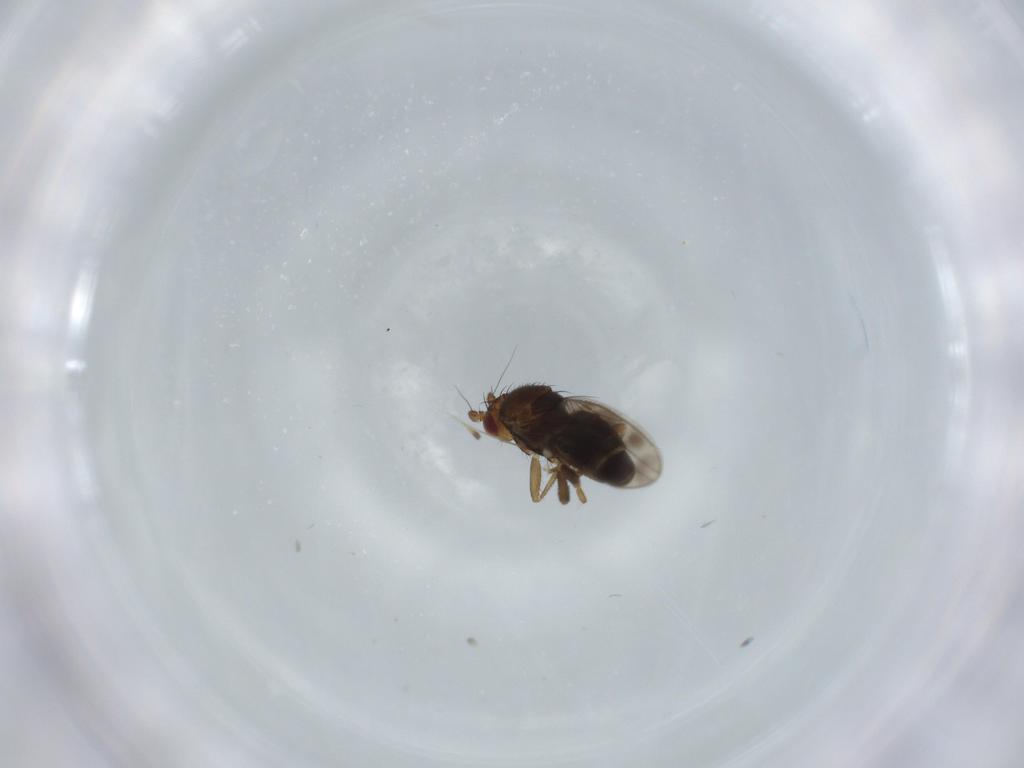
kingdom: Animalia
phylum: Arthropoda
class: Insecta
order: Diptera
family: Sphaeroceridae
